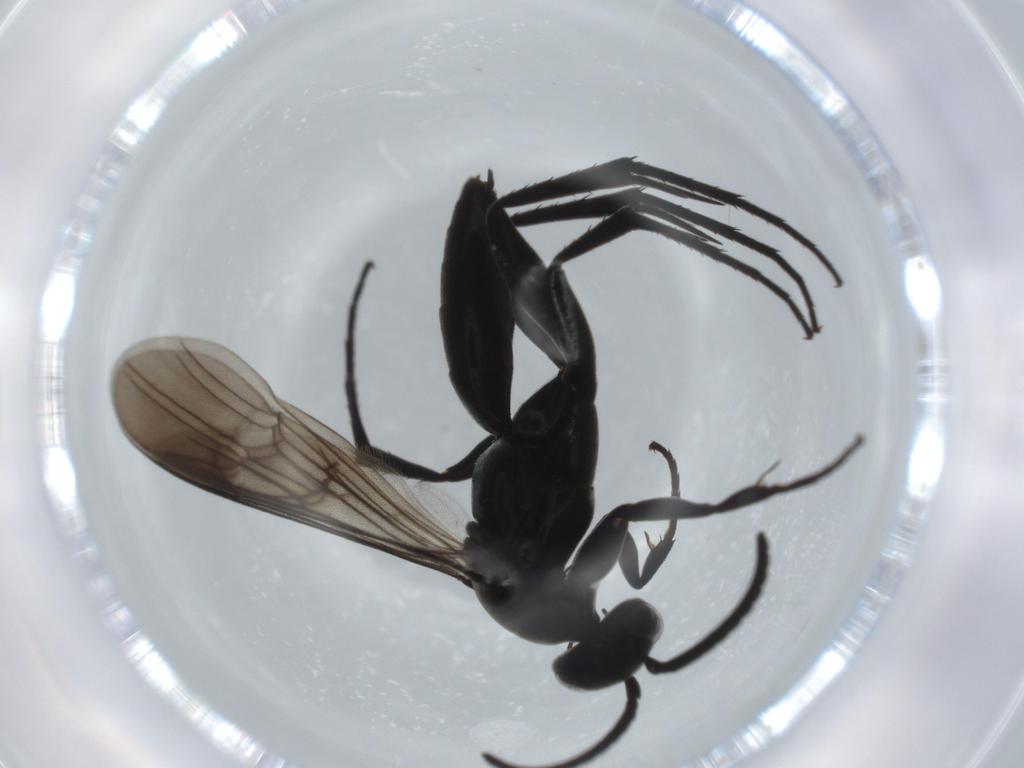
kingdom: Animalia
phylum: Arthropoda
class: Insecta
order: Hymenoptera
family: Pompilidae
